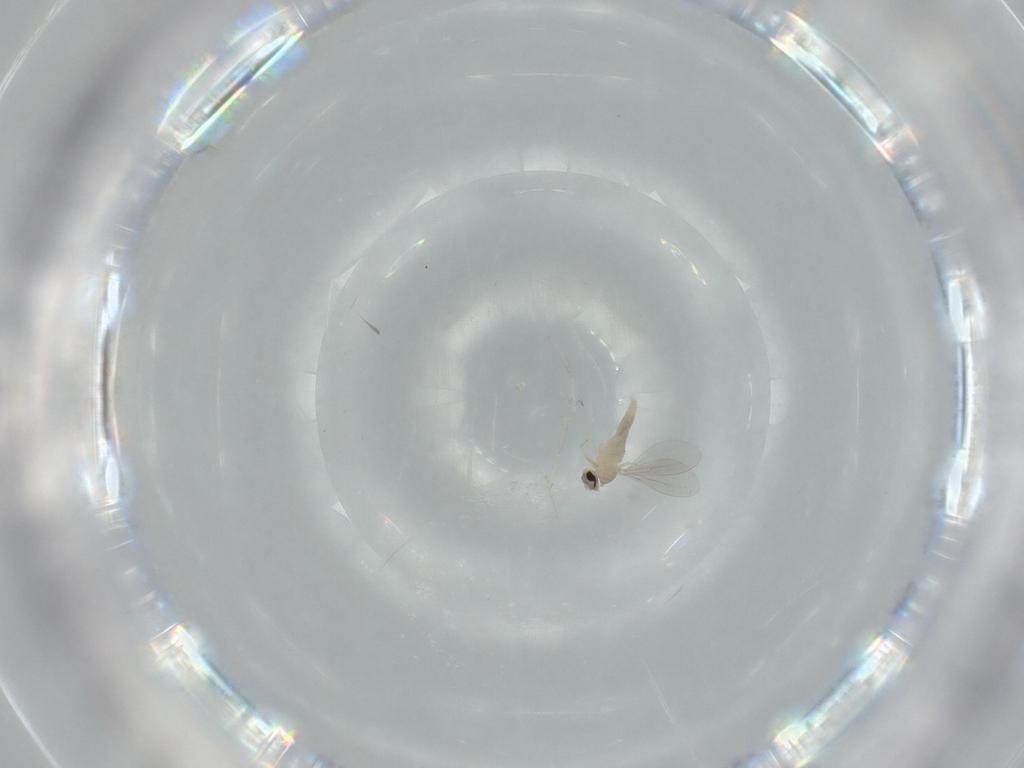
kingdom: Animalia
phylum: Arthropoda
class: Insecta
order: Diptera
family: Cecidomyiidae
